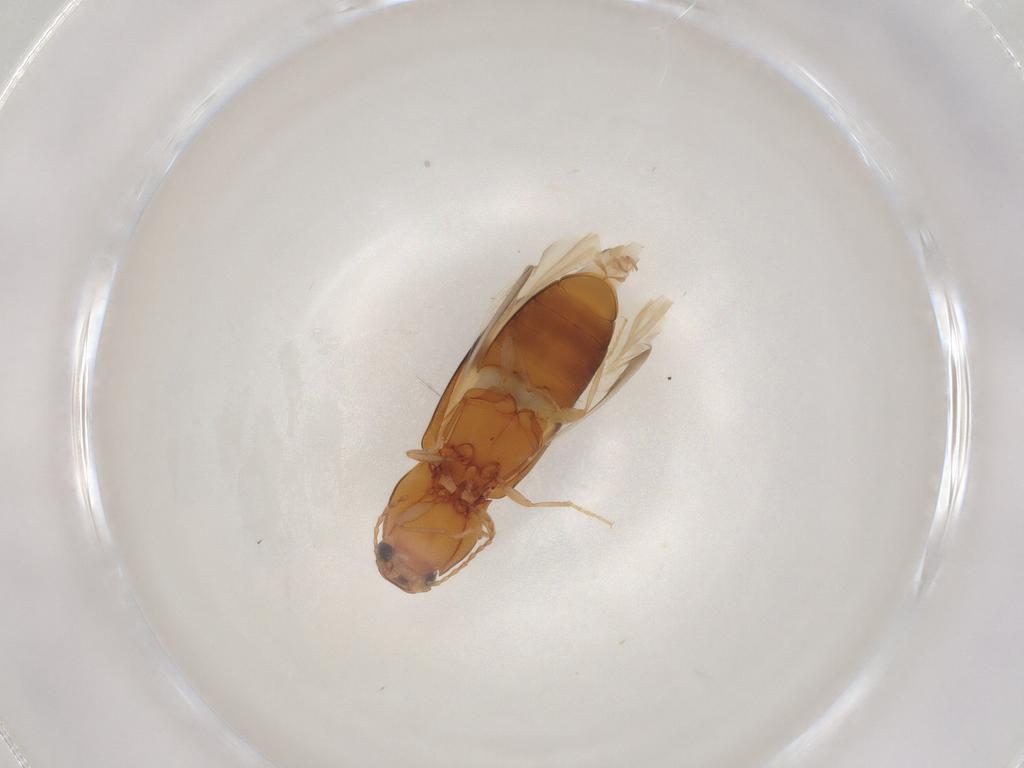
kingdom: Animalia
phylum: Arthropoda
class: Insecta
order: Coleoptera
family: Elateridae
